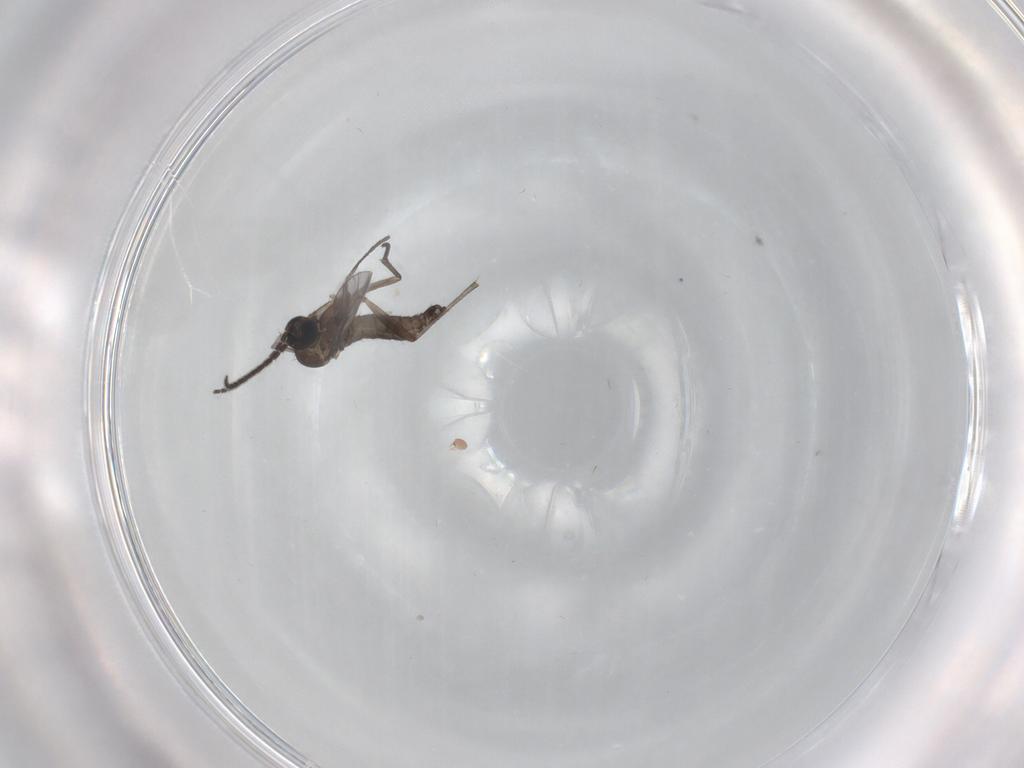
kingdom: Animalia
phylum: Arthropoda
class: Insecta
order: Diptera
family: Sciaridae
